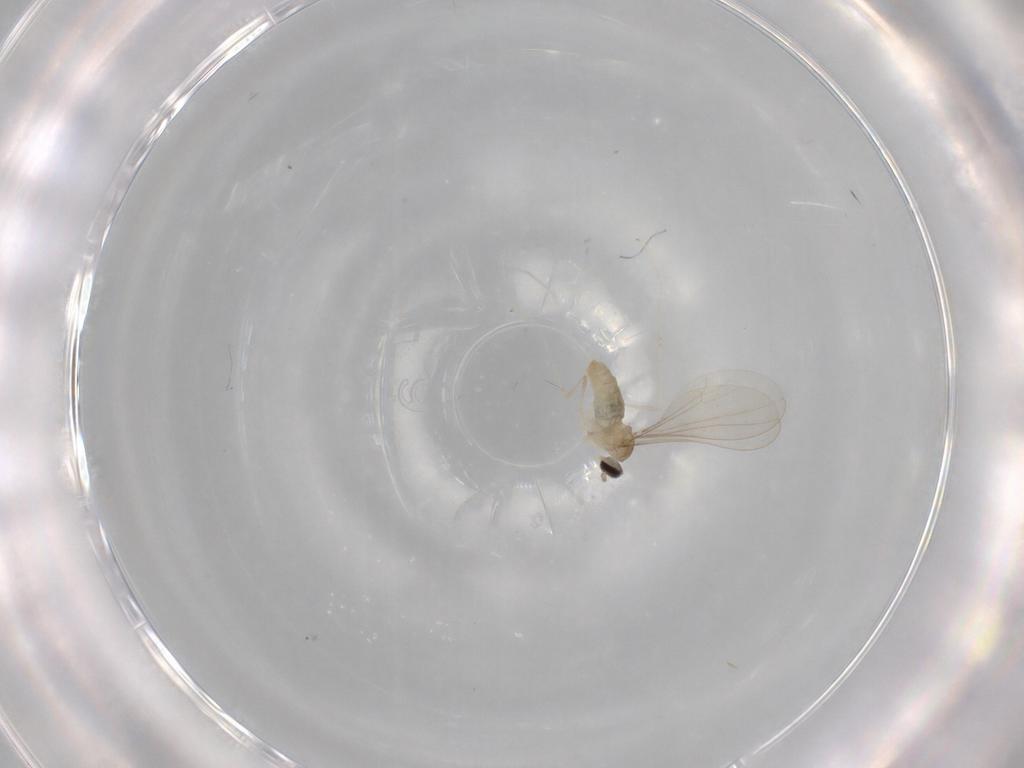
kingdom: Animalia
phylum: Arthropoda
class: Insecta
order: Diptera
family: Cecidomyiidae
